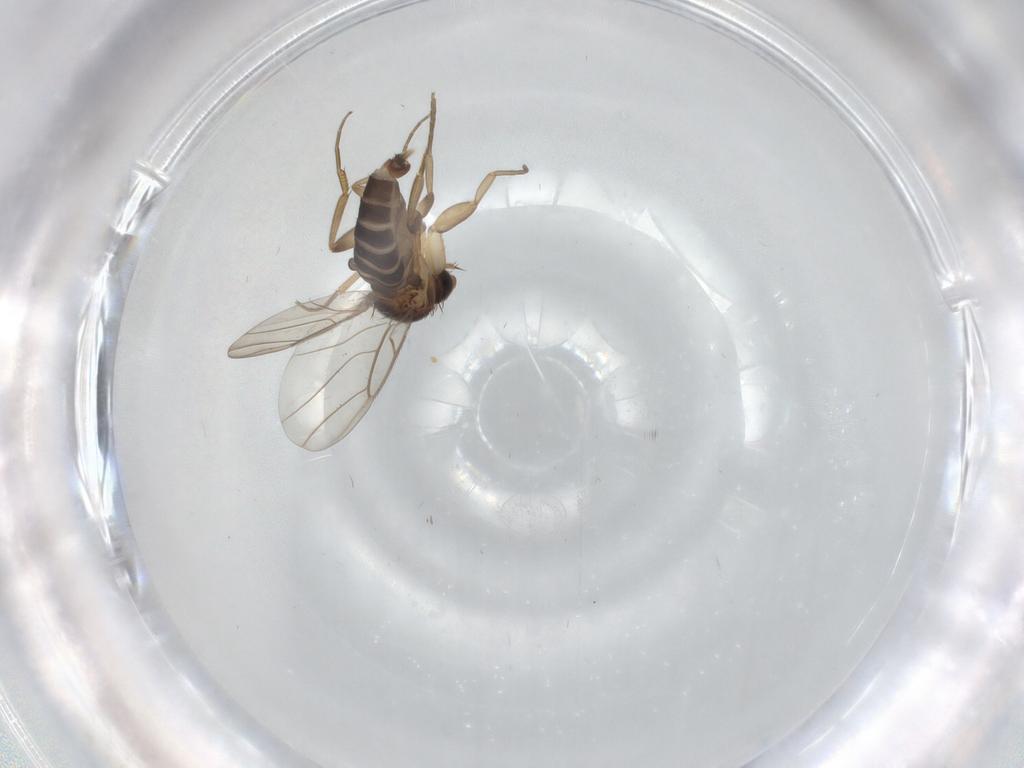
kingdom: Animalia
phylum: Arthropoda
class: Insecta
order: Diptera
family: Phoridae
